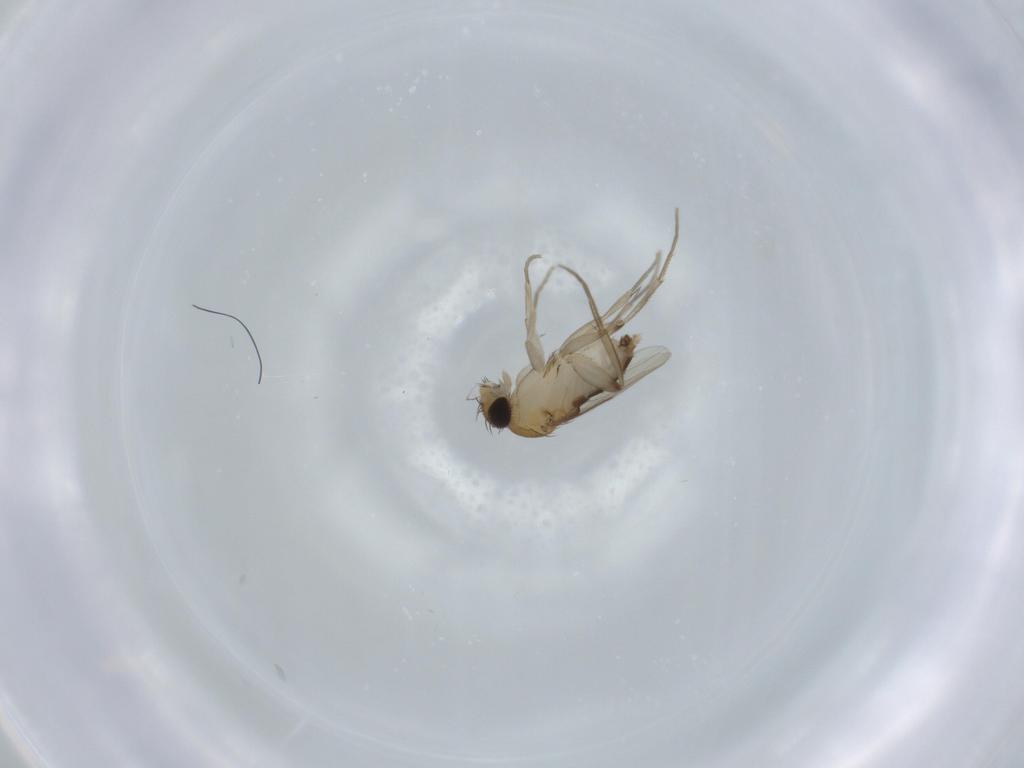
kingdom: Animalia
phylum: Arthropoda
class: Insecta
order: Diptera
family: Phoridae
